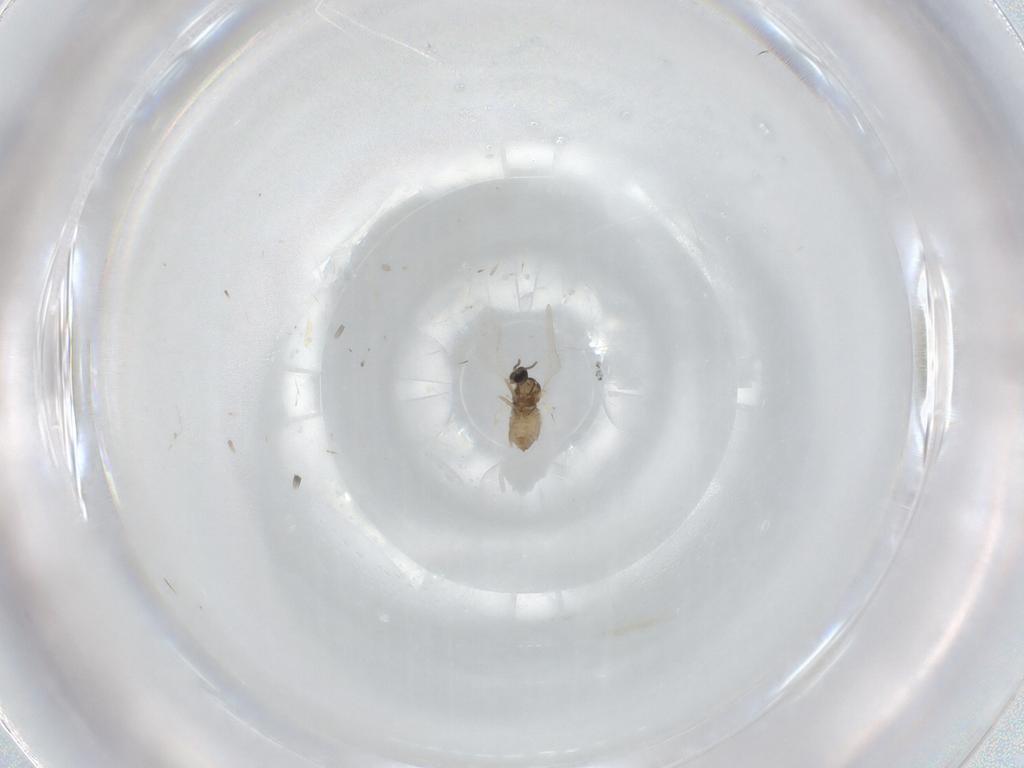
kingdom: Animalia
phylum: Arthropoda
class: Insecta
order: Diptera
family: Cecidomyiidae
